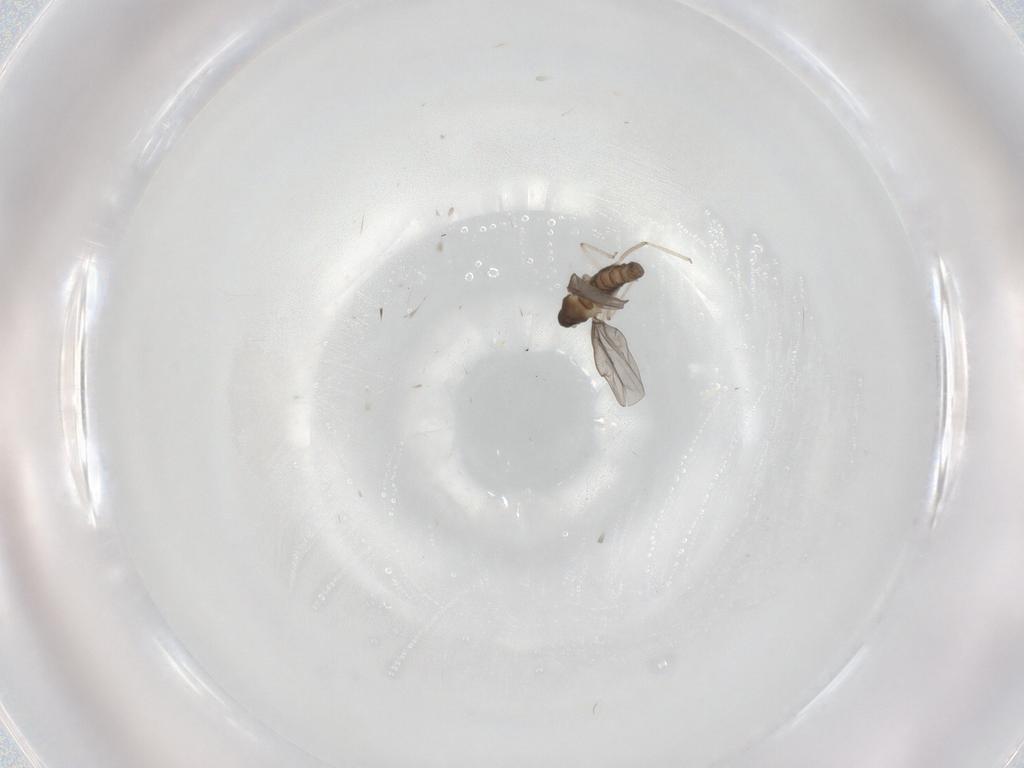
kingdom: Animalia
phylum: Arthropoda
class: Insecta
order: Diptera
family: Cecidomyiidae
